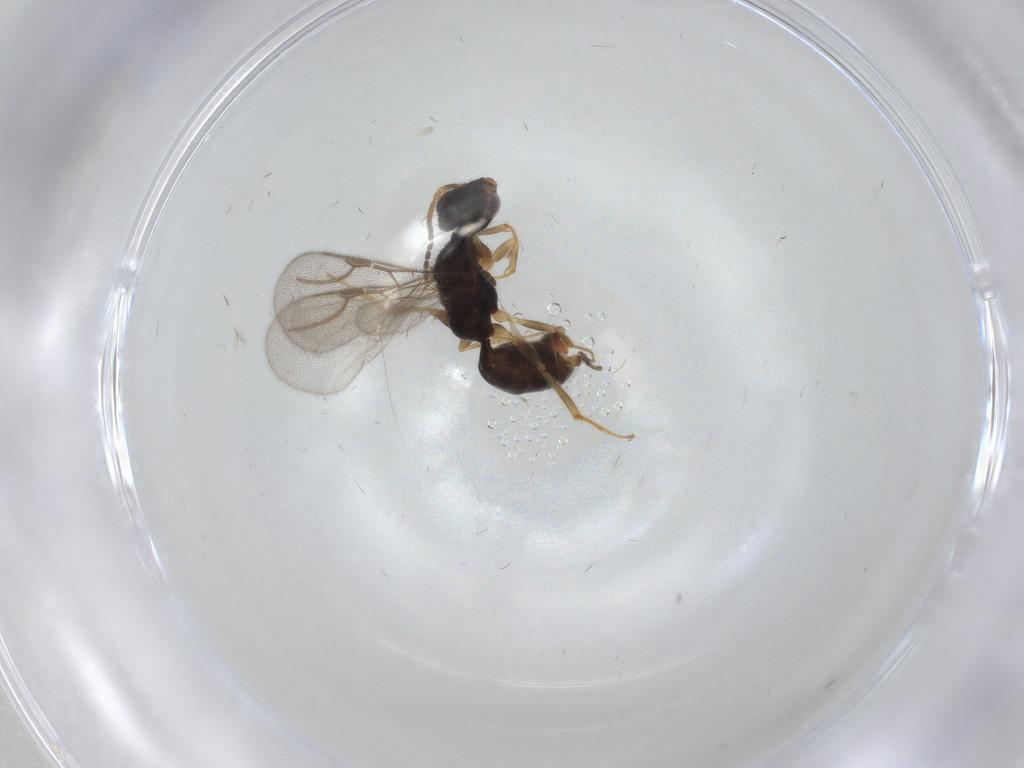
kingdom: Animalia
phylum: Arthropoda
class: Insecta
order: Hymenoptera
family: Bethylidae
